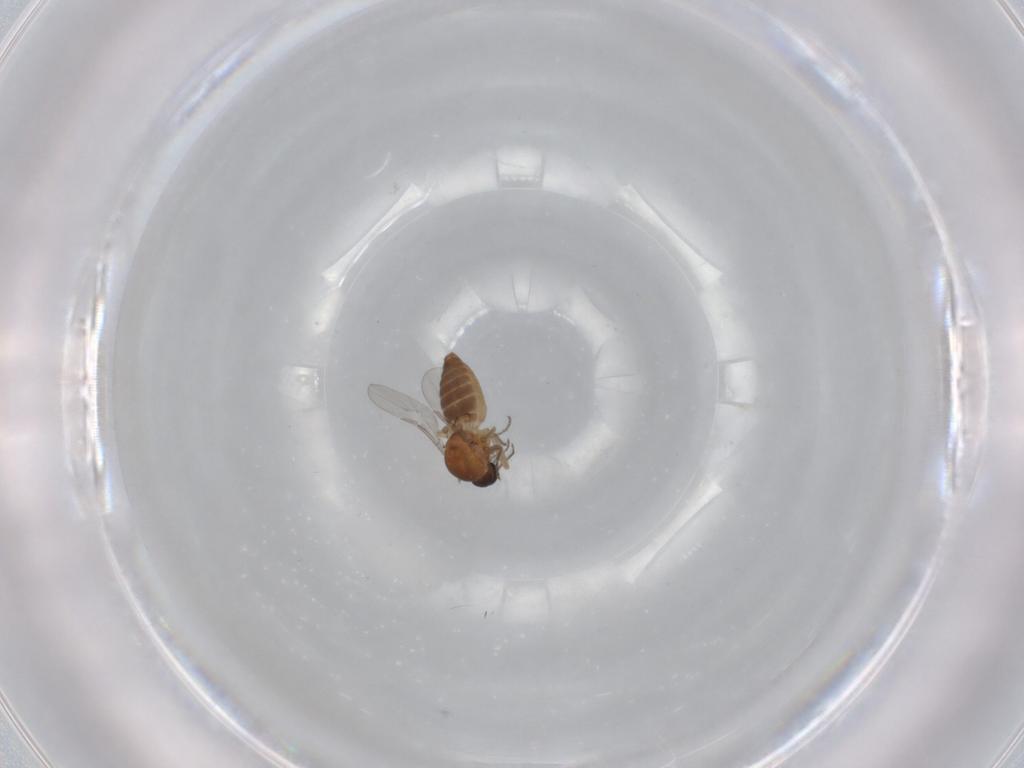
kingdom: Animalia
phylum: Arthropoda
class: Insecta
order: Diptera
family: Ceratopogonidae
